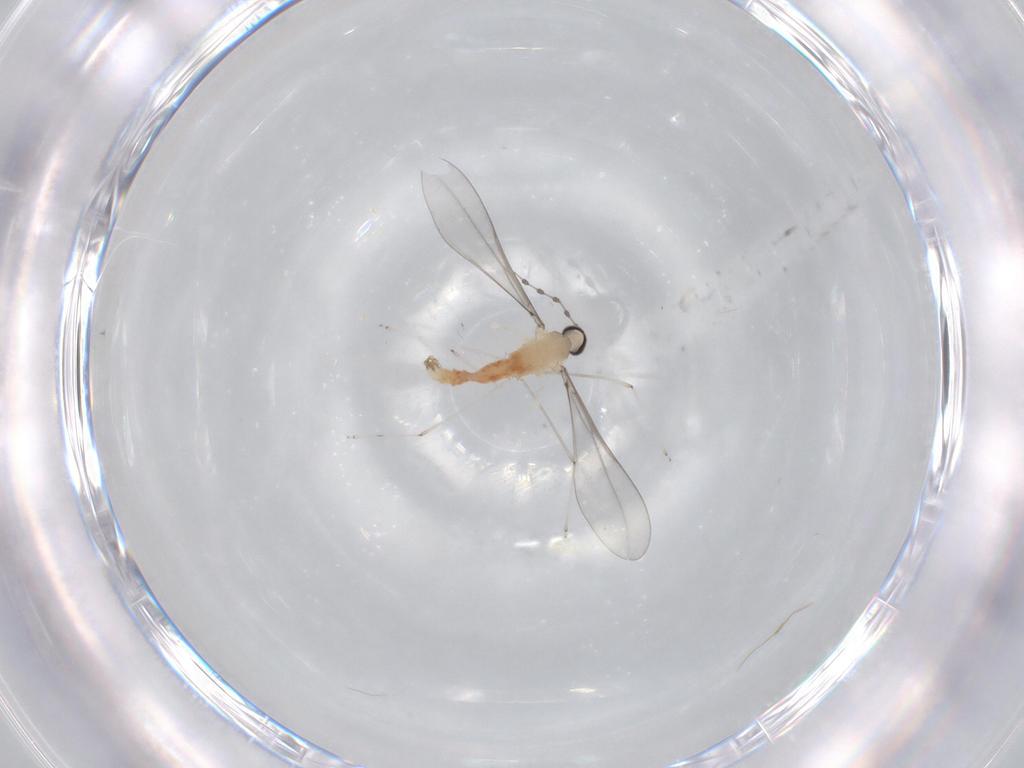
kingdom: Animalia
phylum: Arthropoda
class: Insecta
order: Diptera
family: Cecidomyiidae
